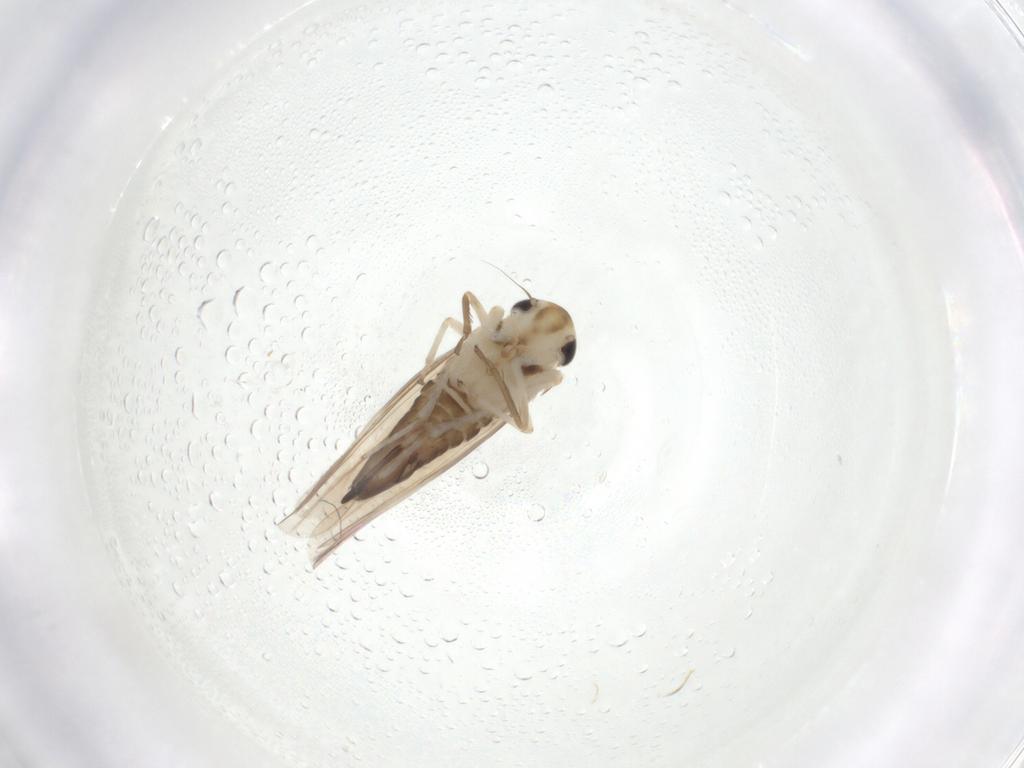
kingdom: Animalia
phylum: Arthropoda
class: Insecta
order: Hemiptera
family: Cicadellidae
